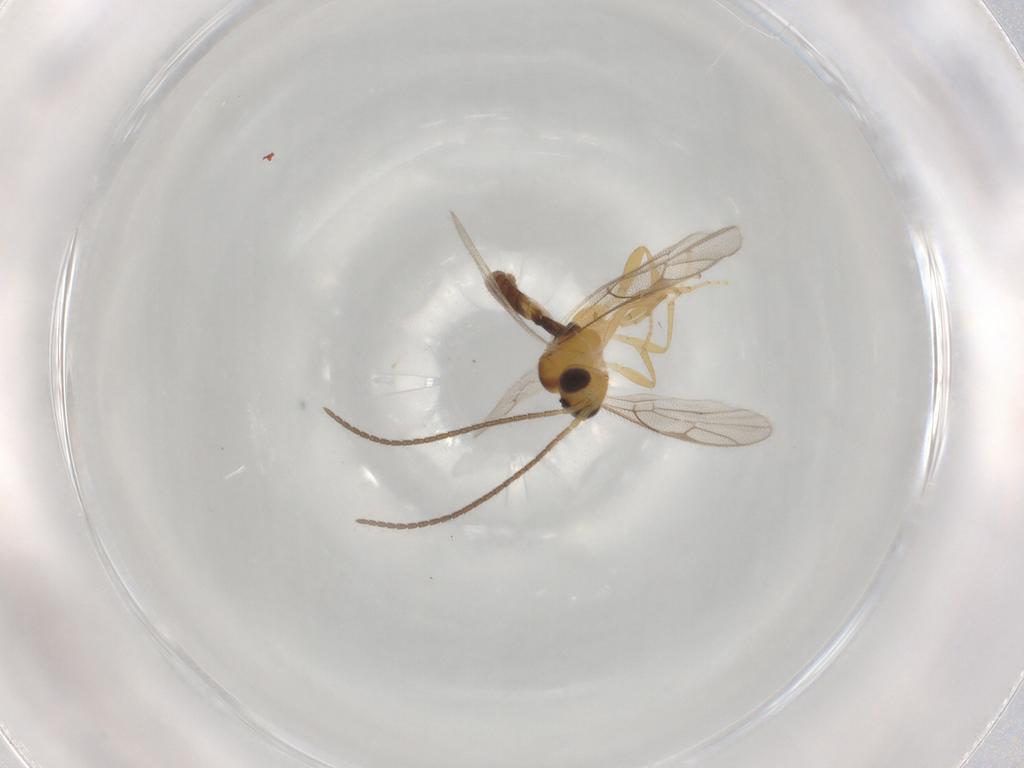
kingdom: Animalia
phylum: Arthropoda
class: Insecta
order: Hymenoptera
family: Ichneumonidae
